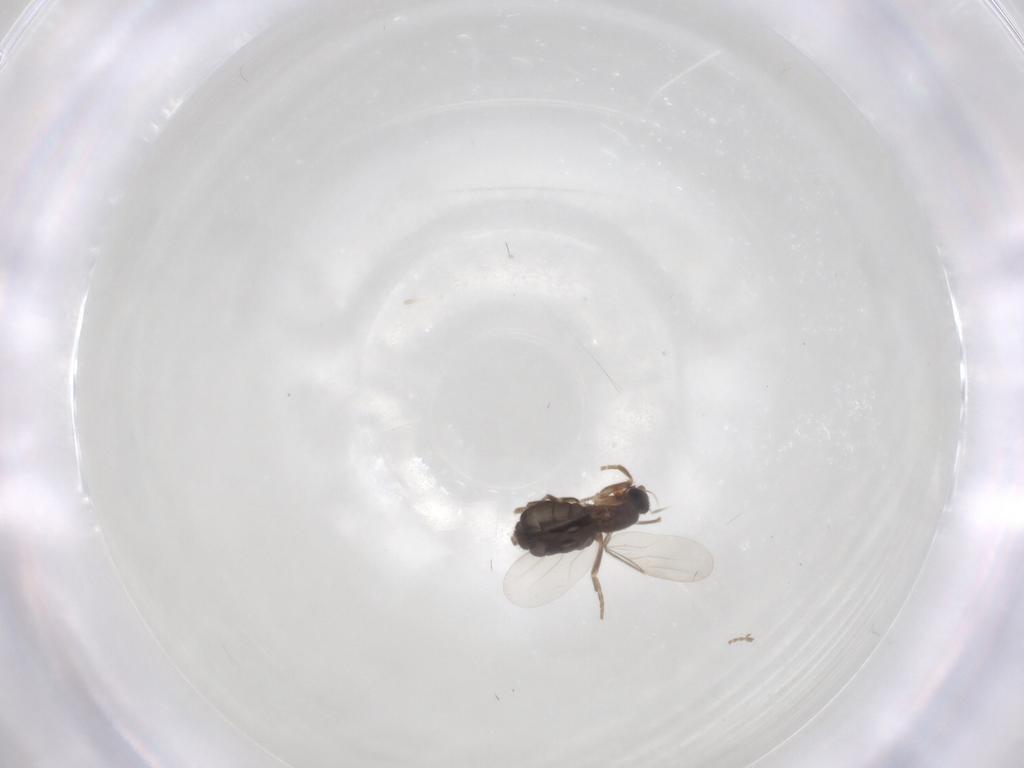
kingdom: Animalia
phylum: Arthropoda
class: Insecta
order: Diptera
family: Phoridae
